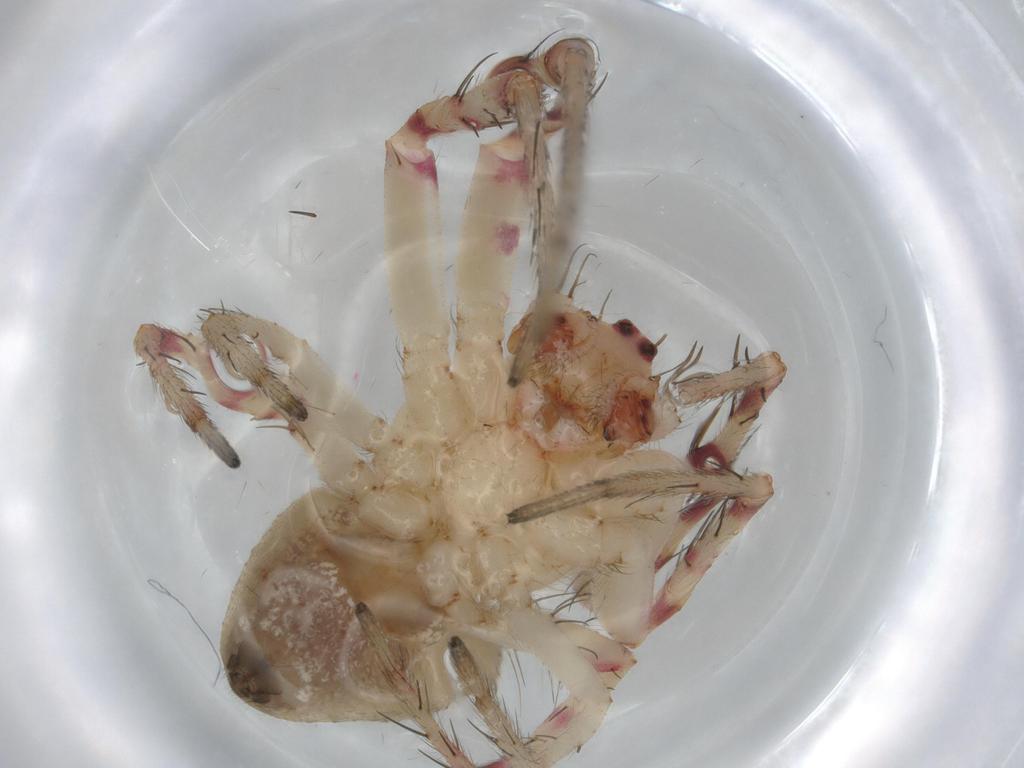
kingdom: Animalia
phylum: Arthropoda
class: Arachnida
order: Araneae
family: Araneidae
